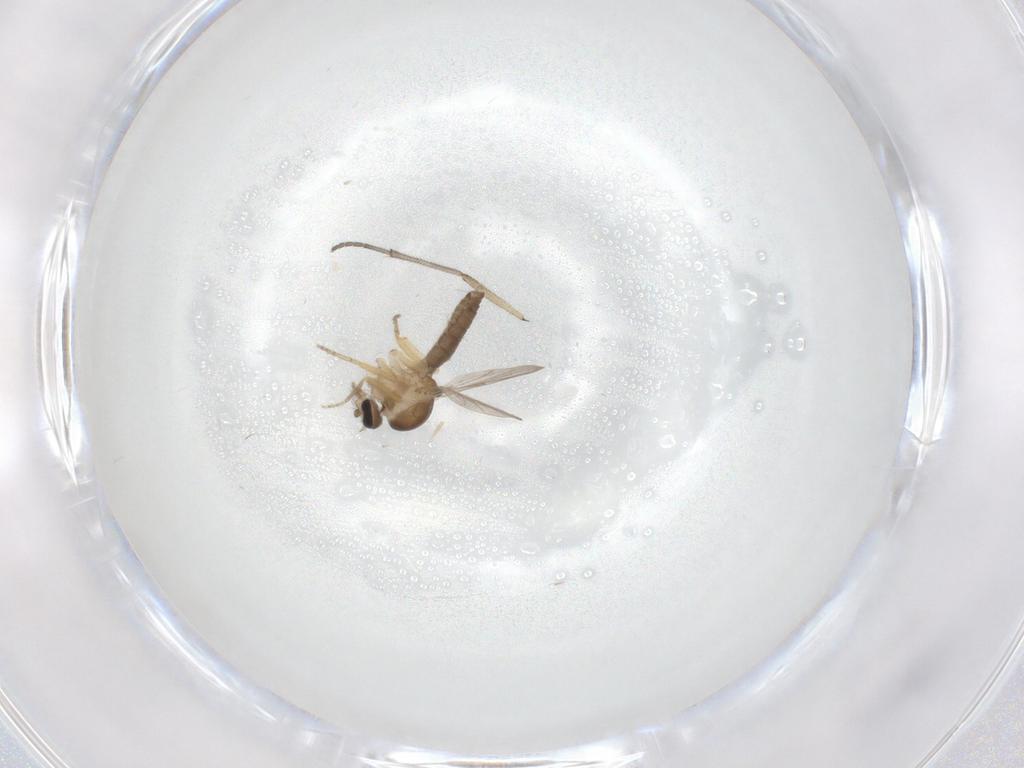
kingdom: Animalia
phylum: Arthropoda
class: Insecta
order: Diptera
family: Ceratopogonidae
